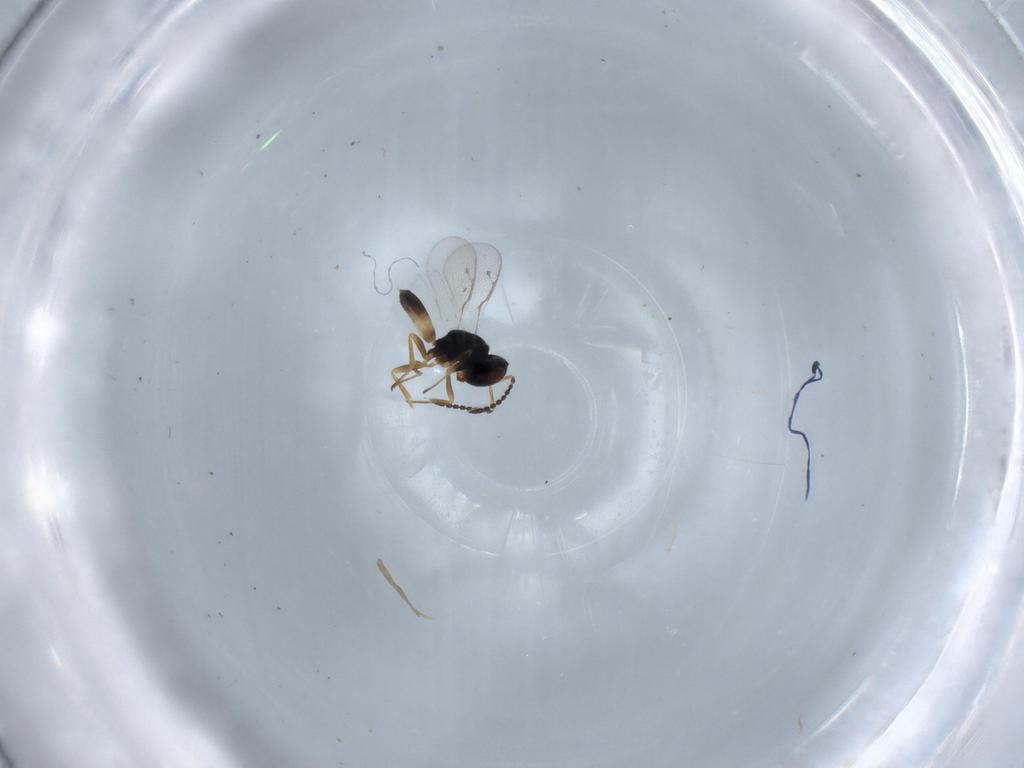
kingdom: Animalia
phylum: Arthropoda
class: Insecta
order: Hymenoptera
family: Pteromalidae
